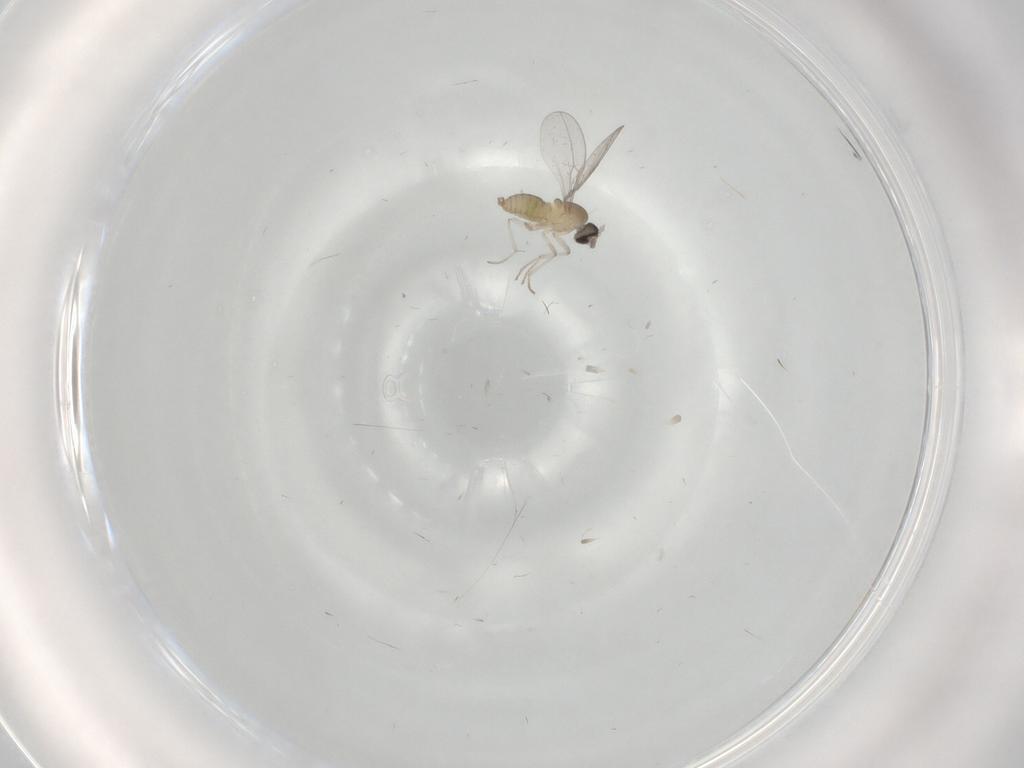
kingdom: Animalia
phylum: Arthropoda
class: Insecta
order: Diptera
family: Cecidomyiidae
